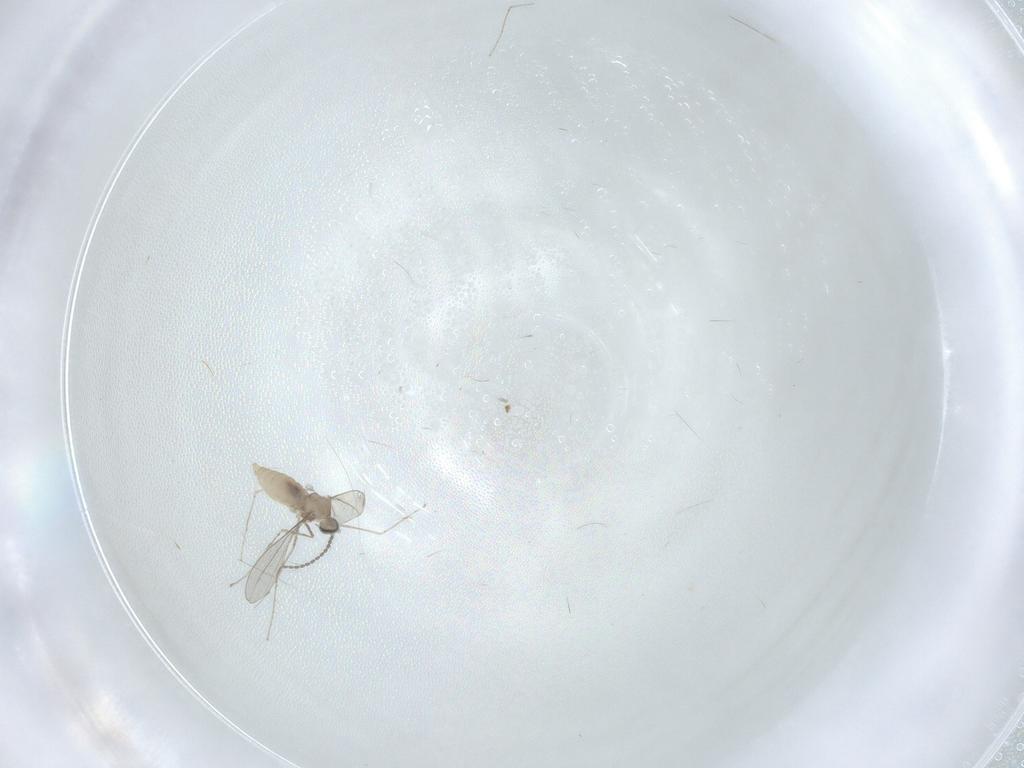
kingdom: Animalia
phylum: Arthropoda
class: Insecta
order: Diptera
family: Cecidomyiidae
